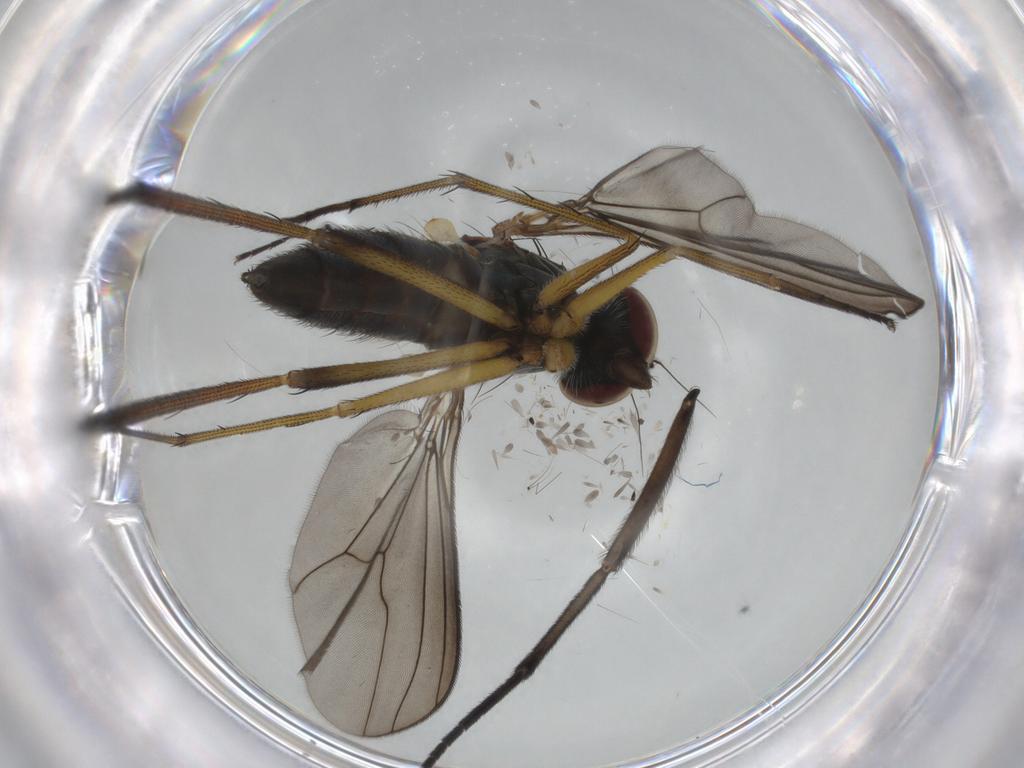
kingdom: Animalia
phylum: Arthropoda
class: Insecta
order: Diptera
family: Dolichopodidae
